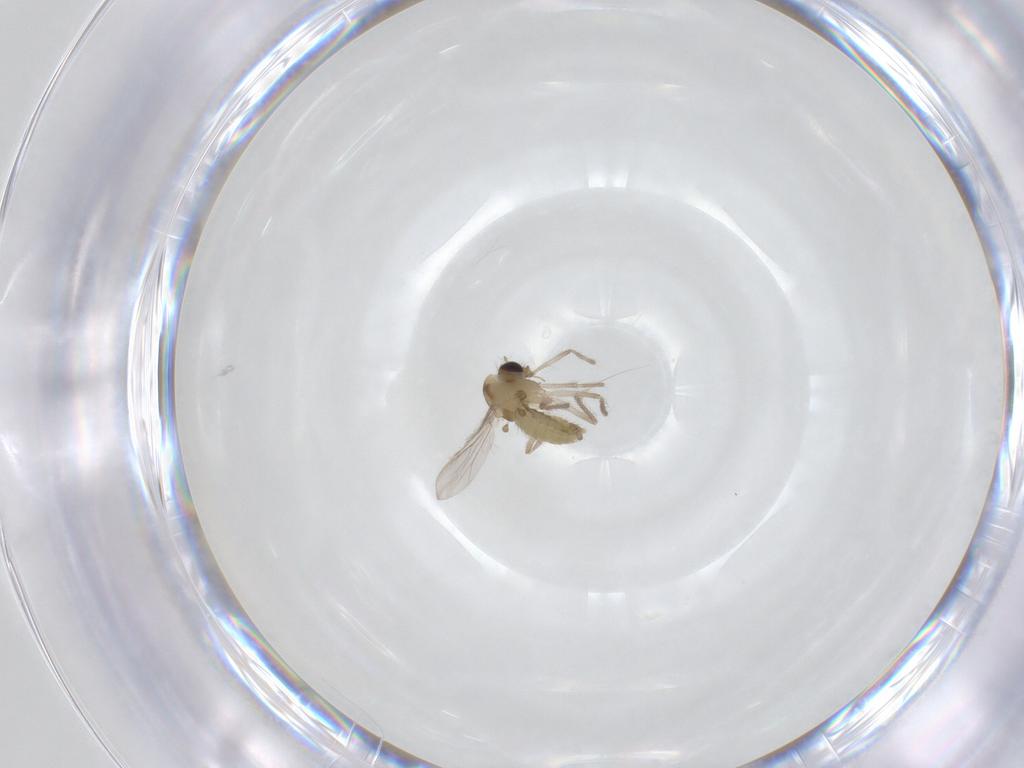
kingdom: Animalia
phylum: Arthropoda
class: Insecta
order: Diptera
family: Chironomidae
